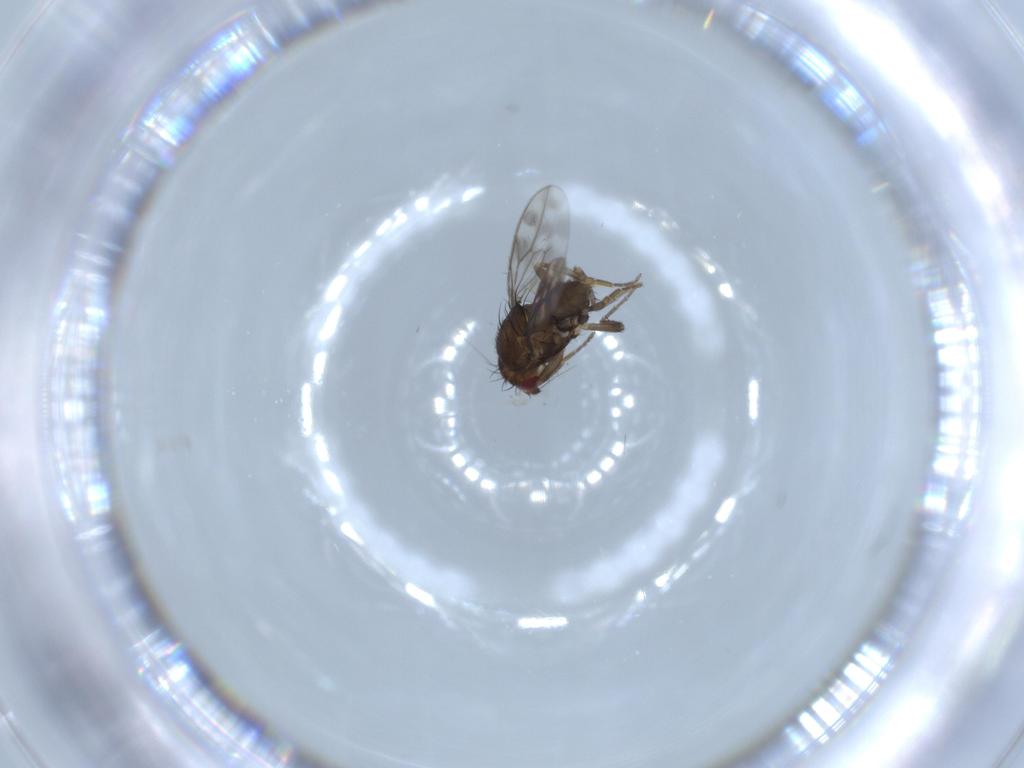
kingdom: Animalia
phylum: Arthropoda
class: Insecta
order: Diptera
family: Sphaeroceridae
